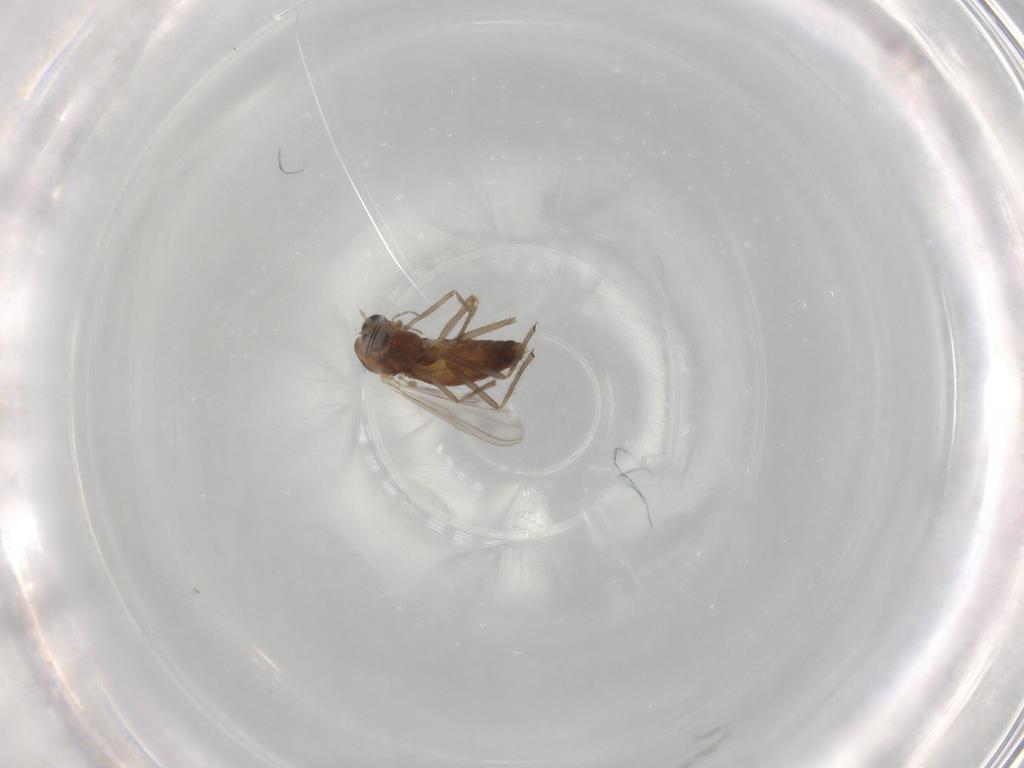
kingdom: Animalia
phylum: Arthropoda
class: Insecta
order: Diptera
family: Chironomidae
